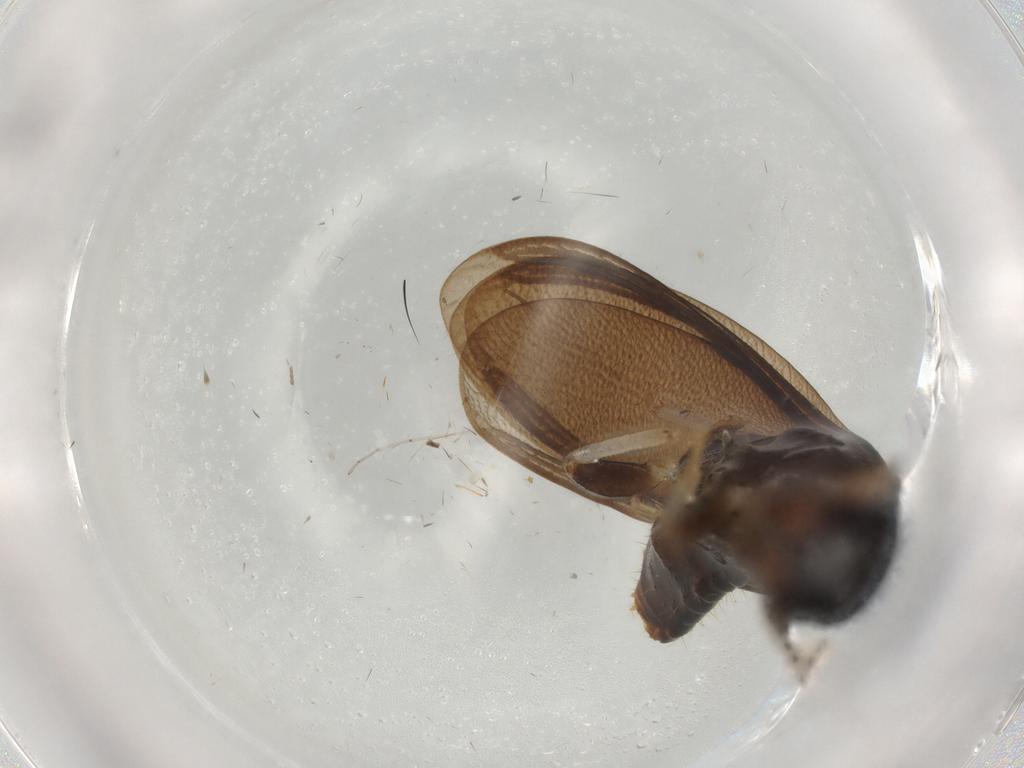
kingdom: Animalia
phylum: Arthropoda
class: Insecta
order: Blattodea
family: Kalotermitidae
